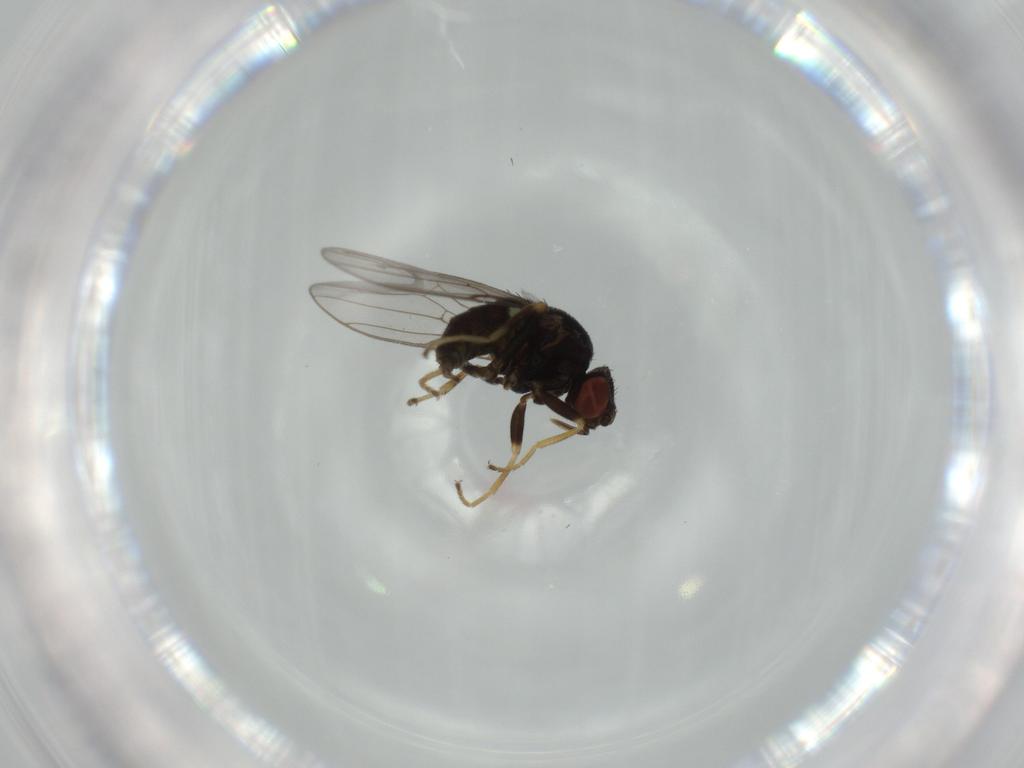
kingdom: Animalia
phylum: Arthropoda
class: Insecta
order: Diptera
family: Chloropidae
